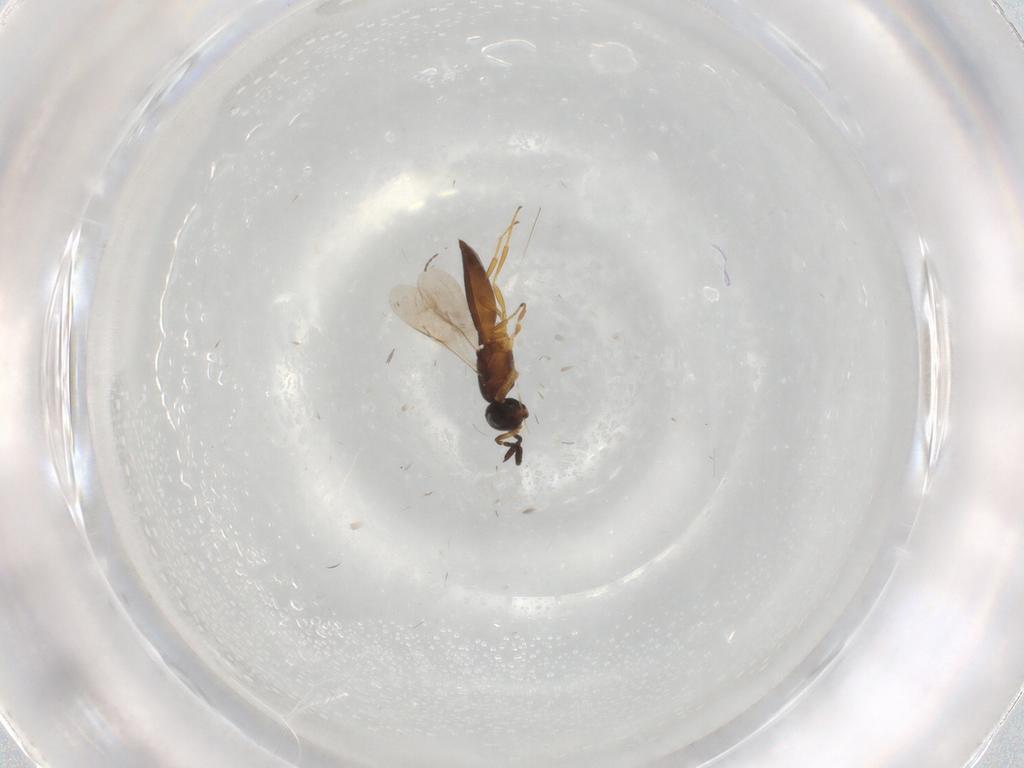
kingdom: Animalia
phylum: Arthropoda
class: Insecta
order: Hymenoptera
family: Scelionidae
